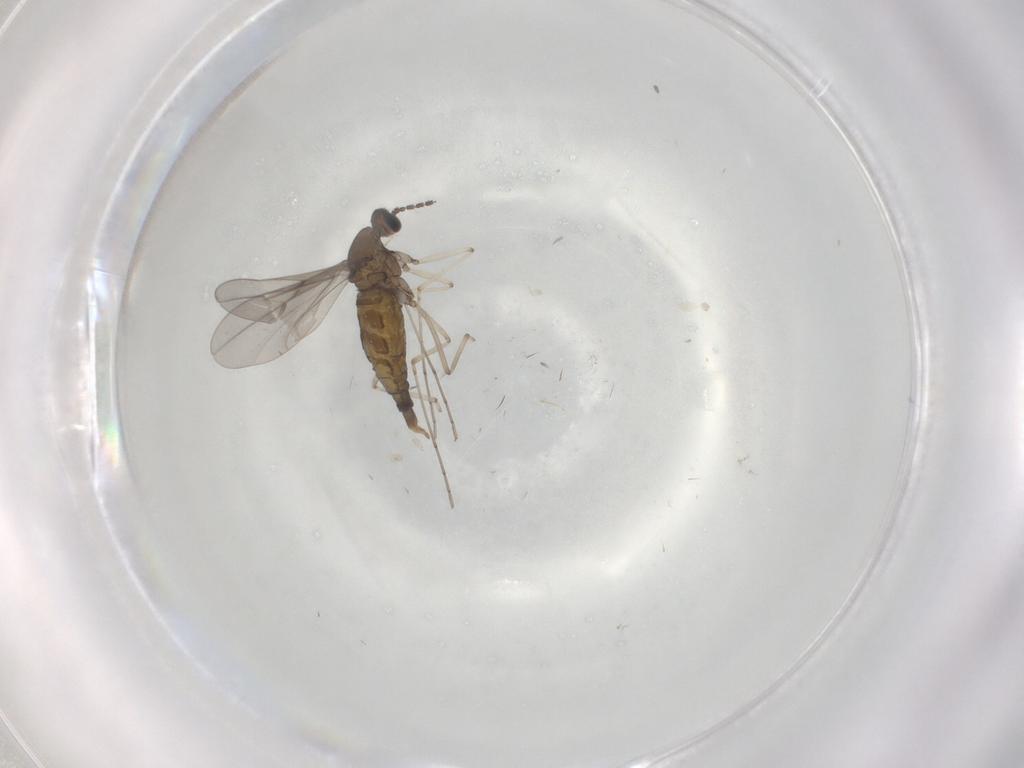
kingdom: Animalia
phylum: Arthropoda
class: Insecta
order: Diptera
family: Cecidomyiidae
